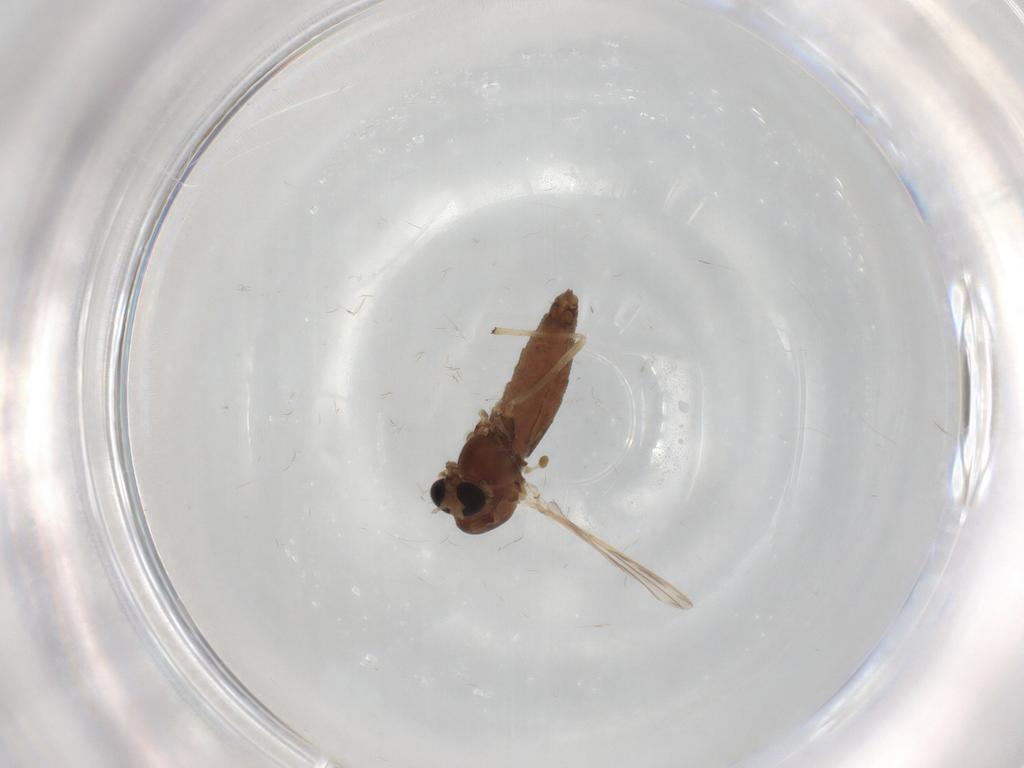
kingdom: Animalia
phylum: Arthropoda
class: Insecta
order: Diptera
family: Chironomidae
